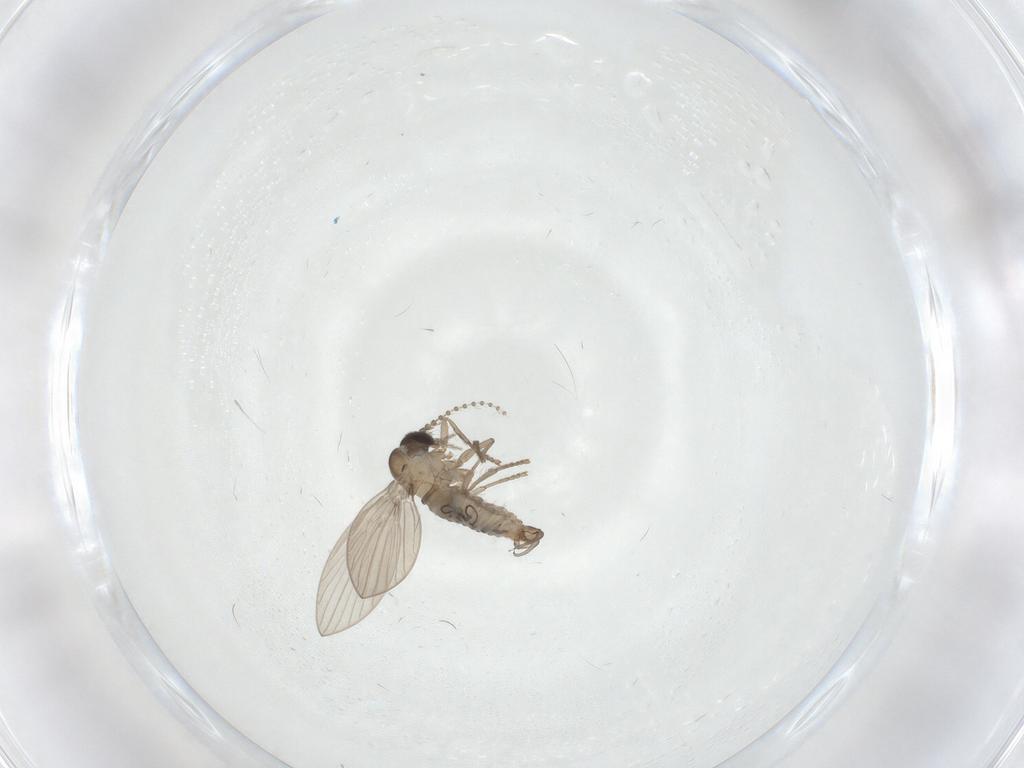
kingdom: Animalia
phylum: Arthropoda
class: Insecta
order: Diptera
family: Psychodidae
